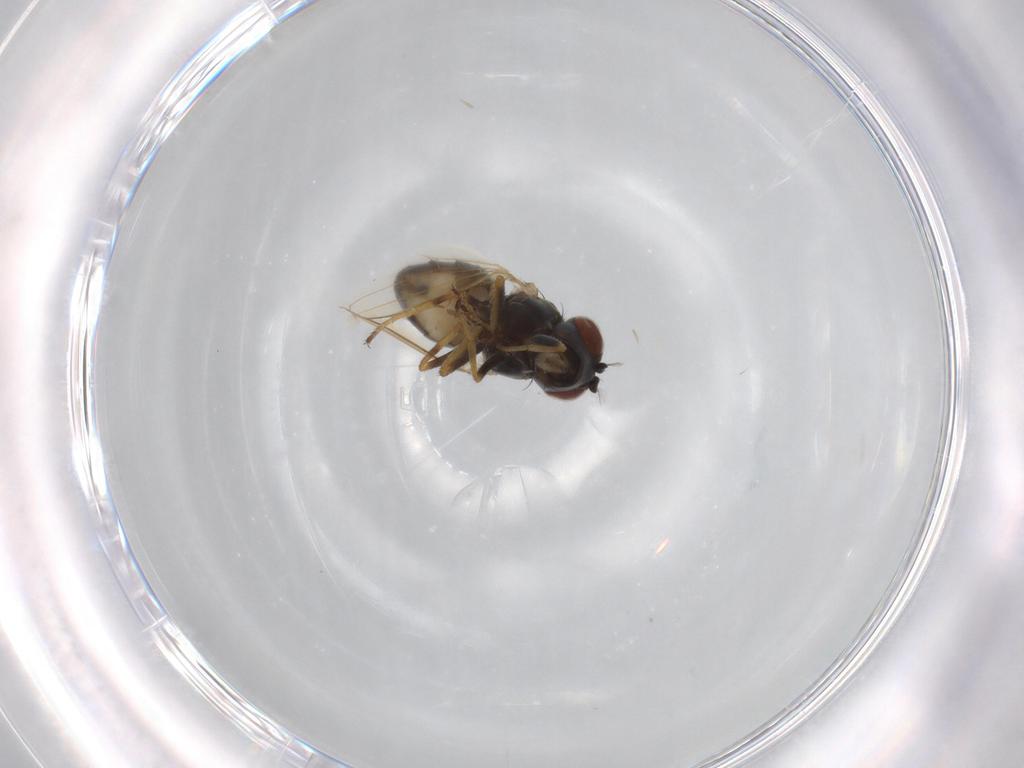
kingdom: Animalia
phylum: Arthropoda
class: Insecta
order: Diptera
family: Ephydridae
